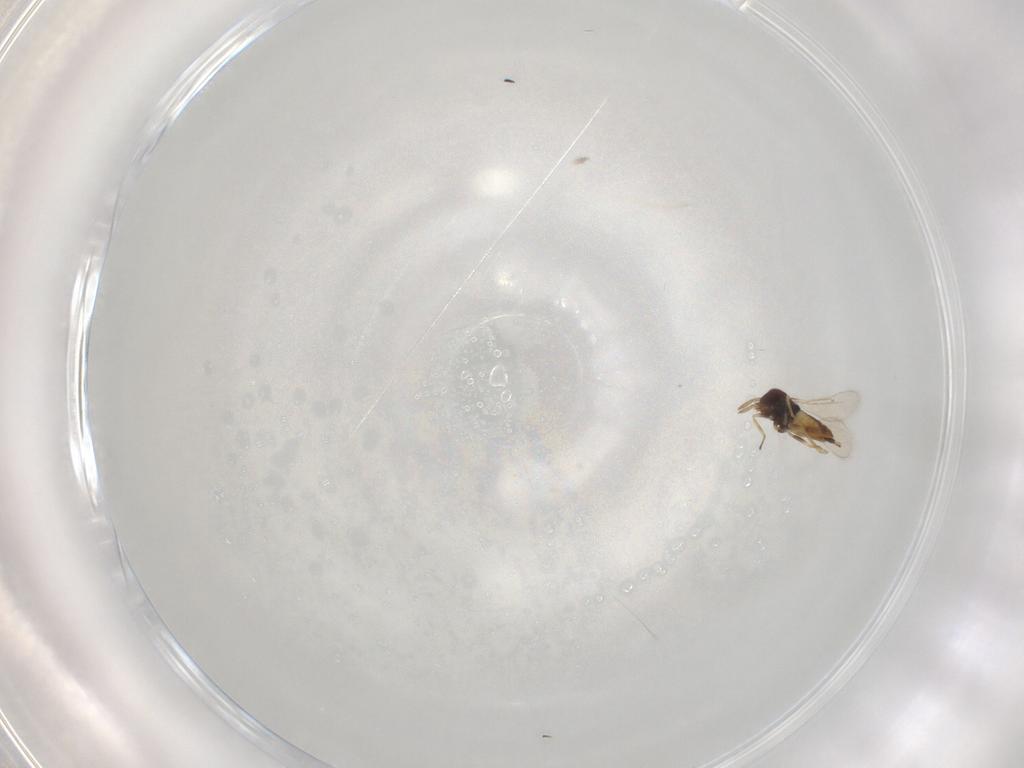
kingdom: Animalia
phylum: Arthropoda
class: Insecta
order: Hymenoptera
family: Eulophidae
